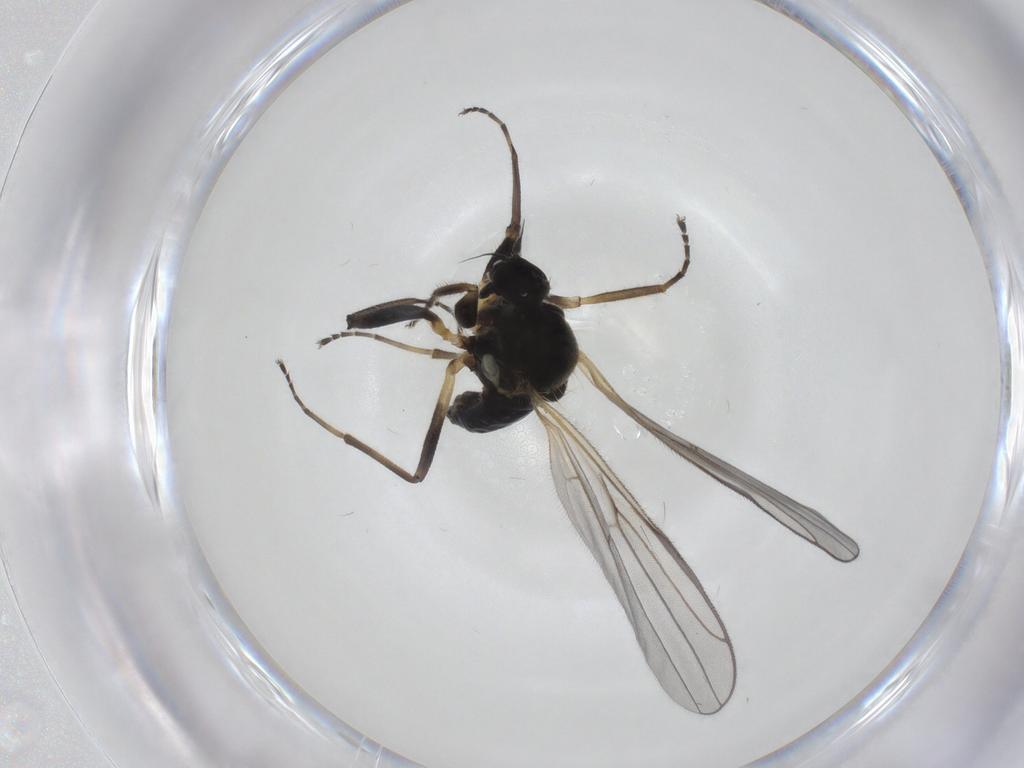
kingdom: Animalia
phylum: Arthropoda
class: Insecta
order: Diptera
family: Hybotidae
